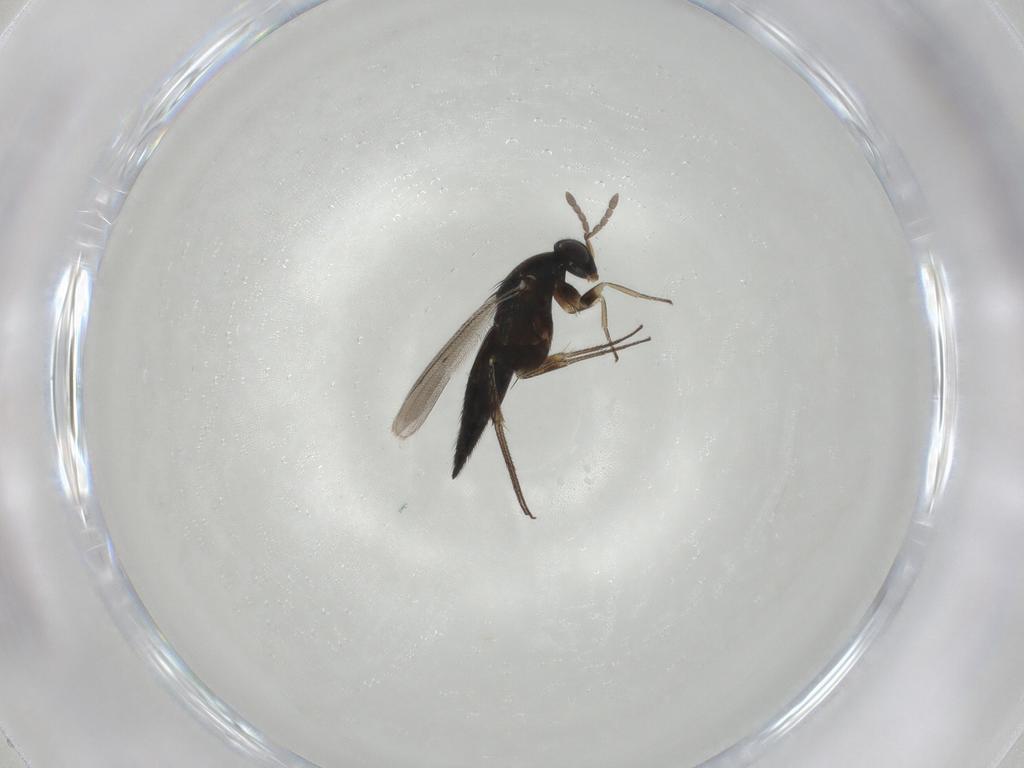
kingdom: Animalia
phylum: Arthropoda
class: Insecta
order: Hymenoptera
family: Eulophidae
